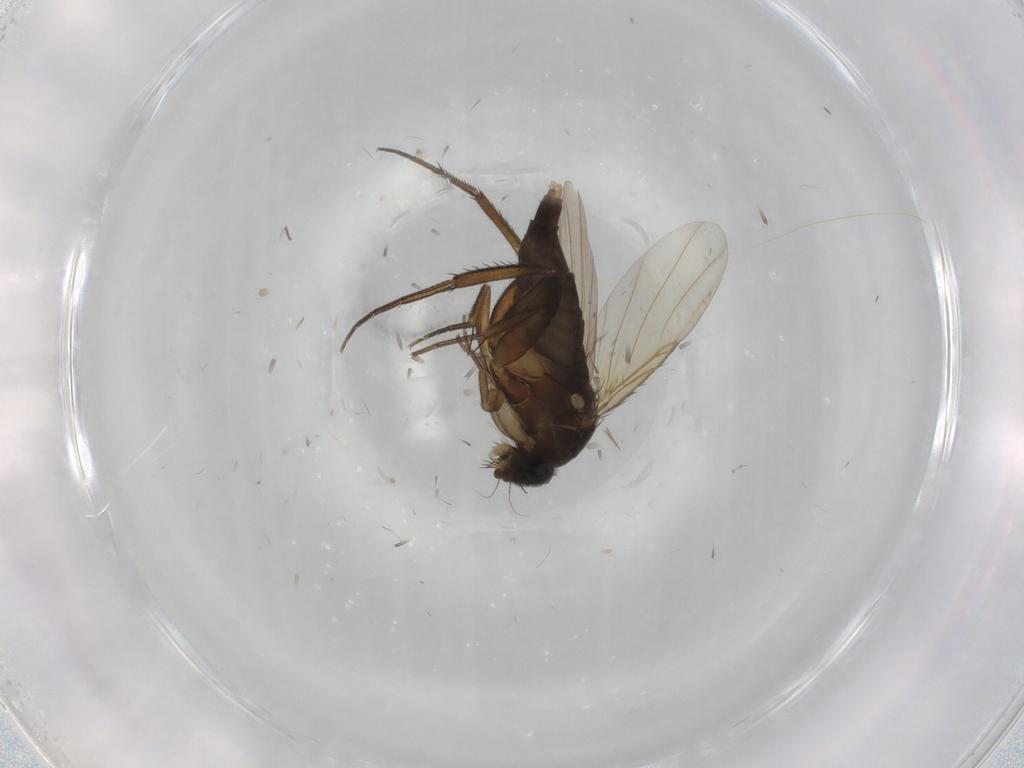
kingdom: Animalia
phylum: Arthropoda
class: Insecta
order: Diptera
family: Phoridae
